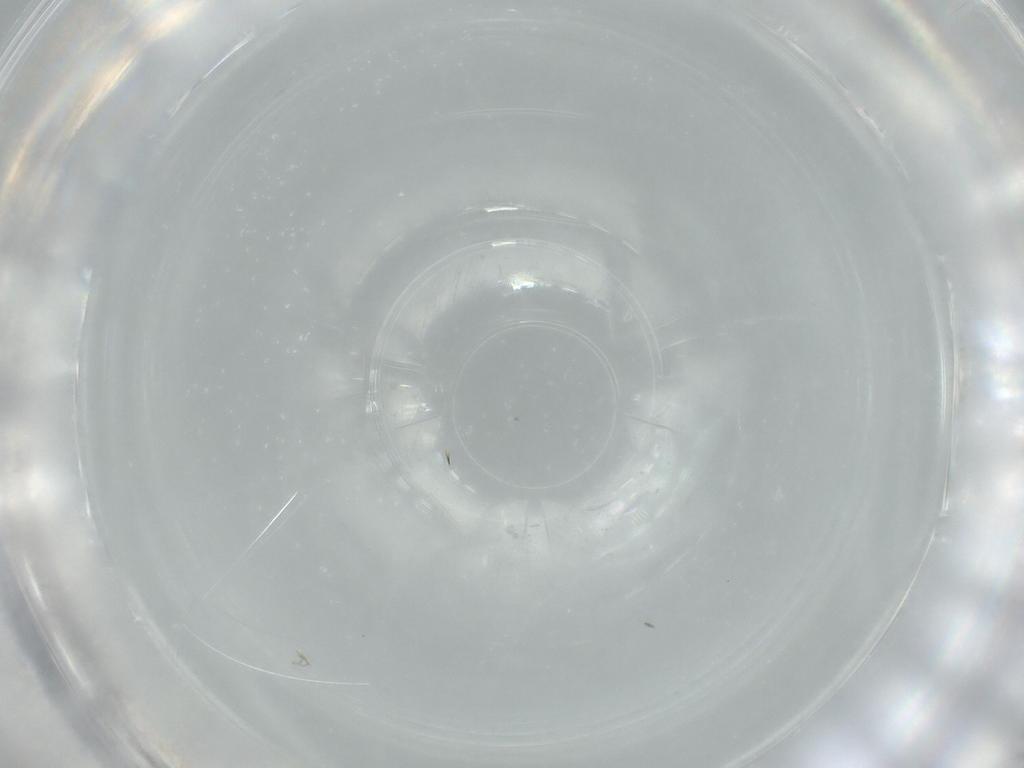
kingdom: Animalia
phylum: Arthropoda
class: Insecta
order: Diptera
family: Phoridae
